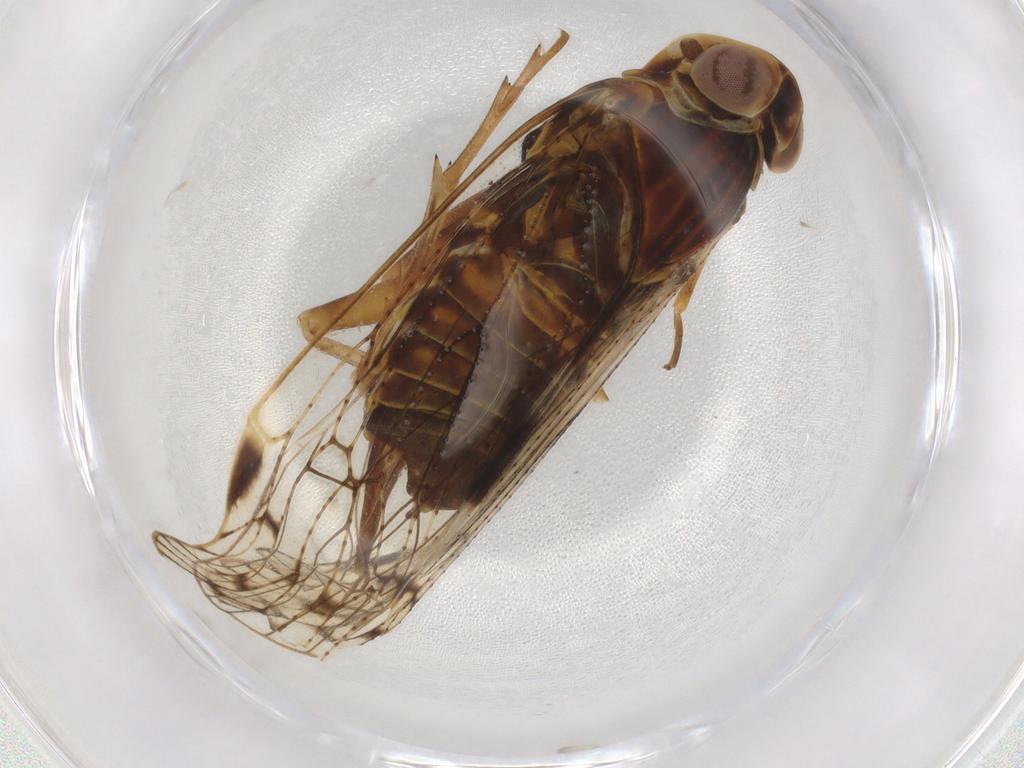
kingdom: Animalia
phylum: Arthropoda
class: Insecta
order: Hemiptera
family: Cixiidae
